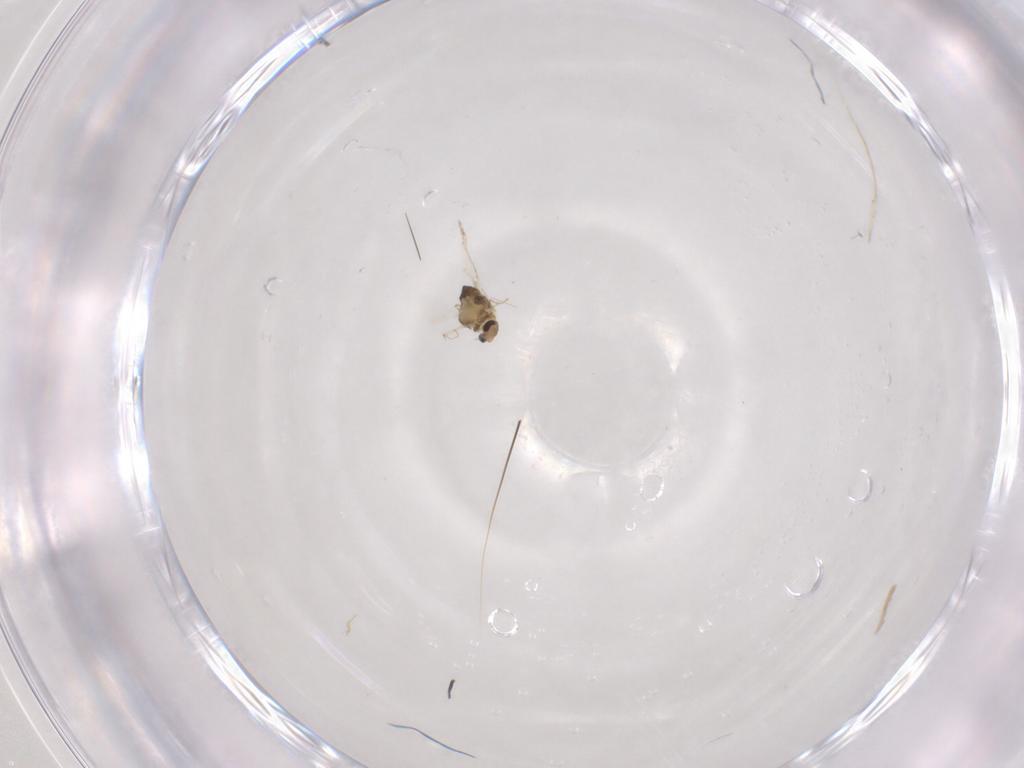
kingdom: Animalia
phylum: Arthropoda
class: Insecta
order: Diptera
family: Chironomidae
